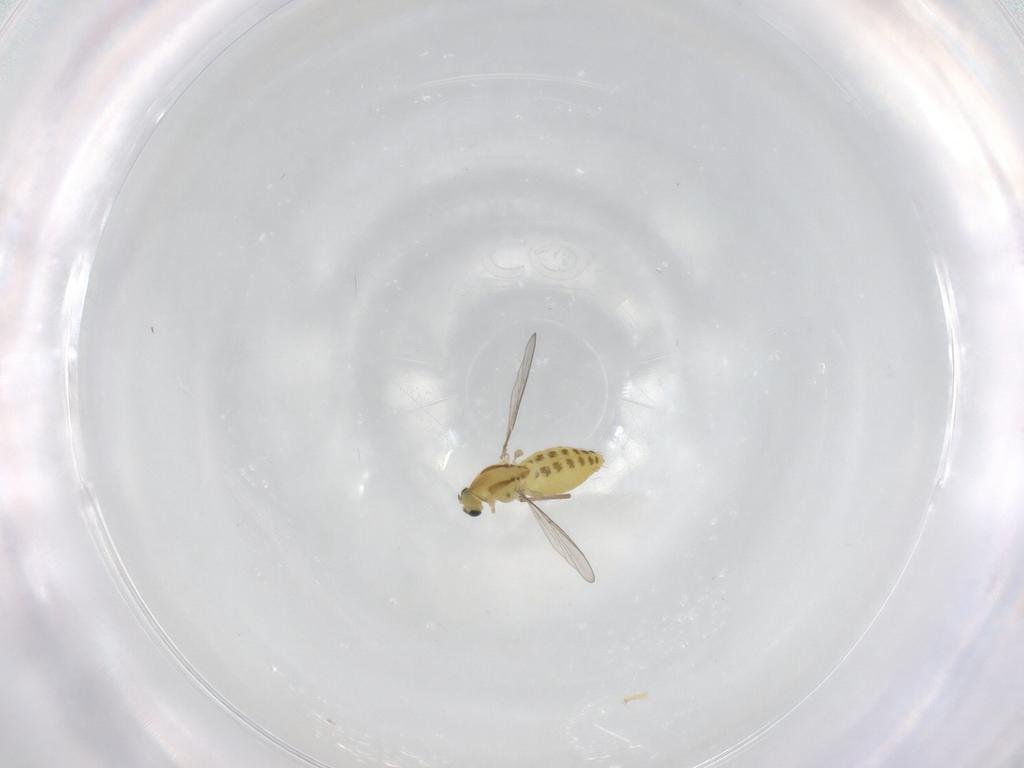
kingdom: Animalia
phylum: Arthropoda
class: Insecta
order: Diptera
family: Chironomidae
